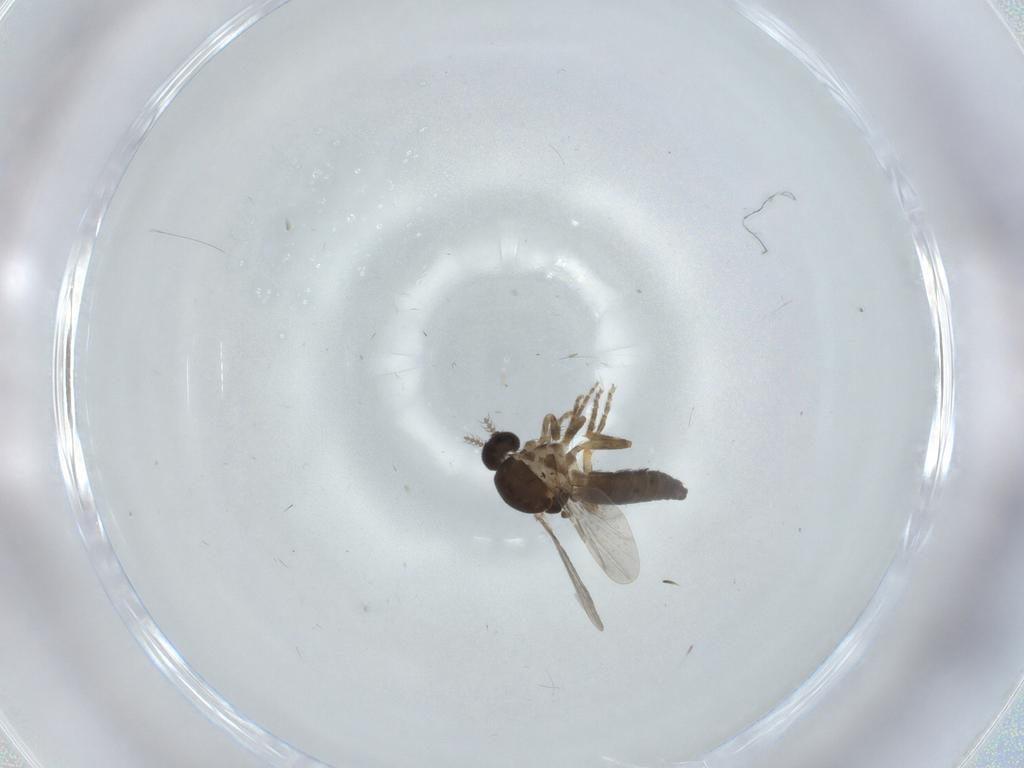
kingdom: Animalia
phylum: Arthropoda
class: Insecta
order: Diptera
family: Ceratopogonidae
